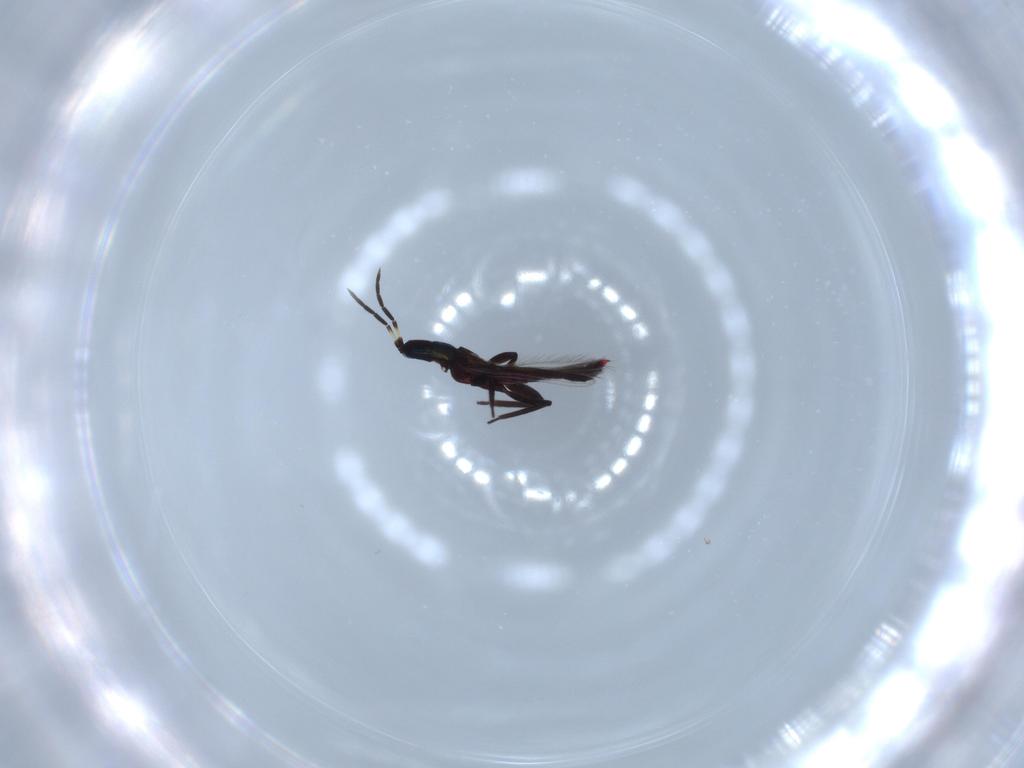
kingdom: Animalia
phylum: Arthropoda
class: Insecta
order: Thysanoptera
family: Aeolothripidae
